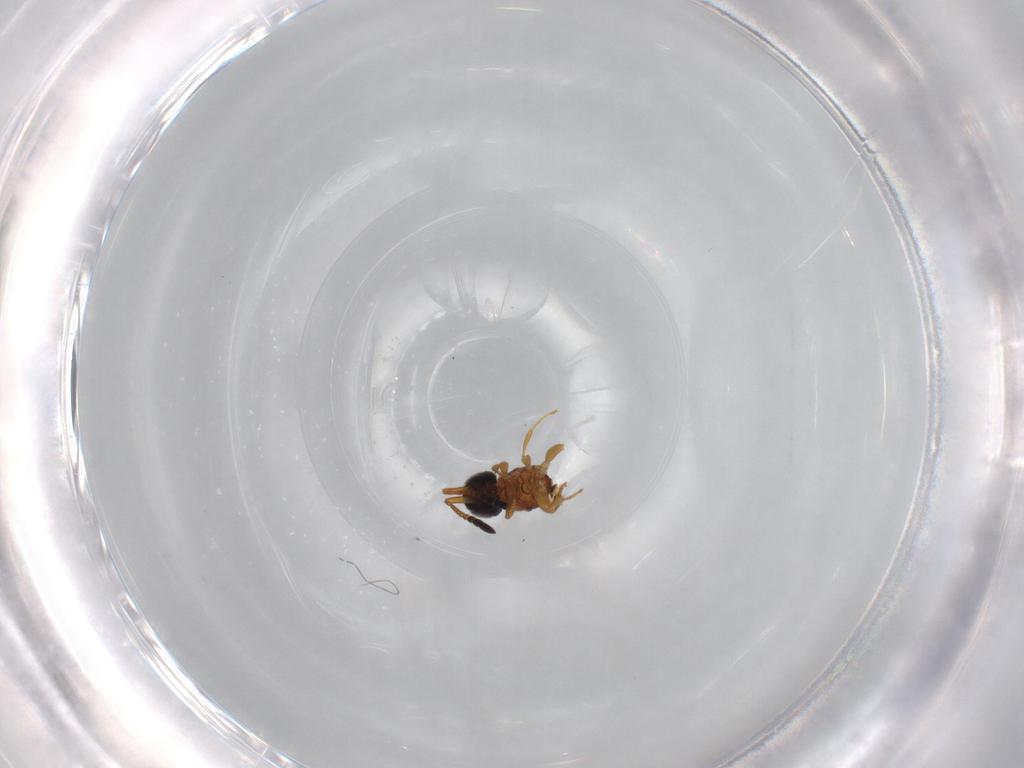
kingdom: Animalia
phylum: Arthropoda
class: Insecta
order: Hymenoptera
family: Ceraphronidae
